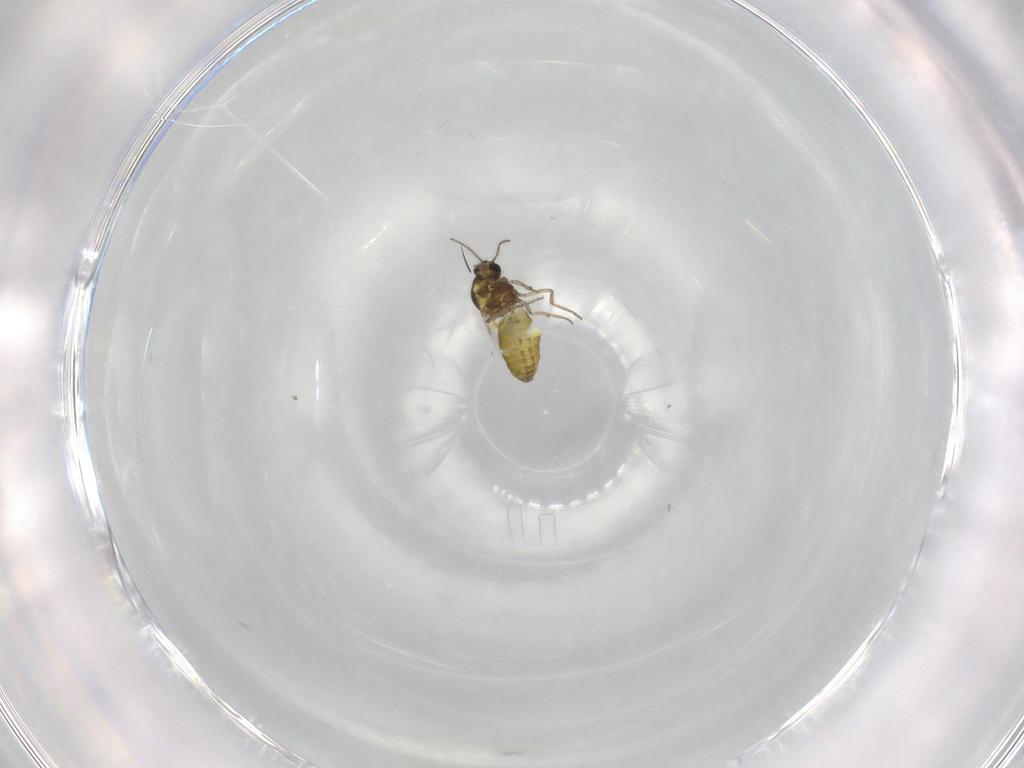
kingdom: Animalia
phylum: Arthropoda
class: Insecta
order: Diptera
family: Ceratopogonidae
